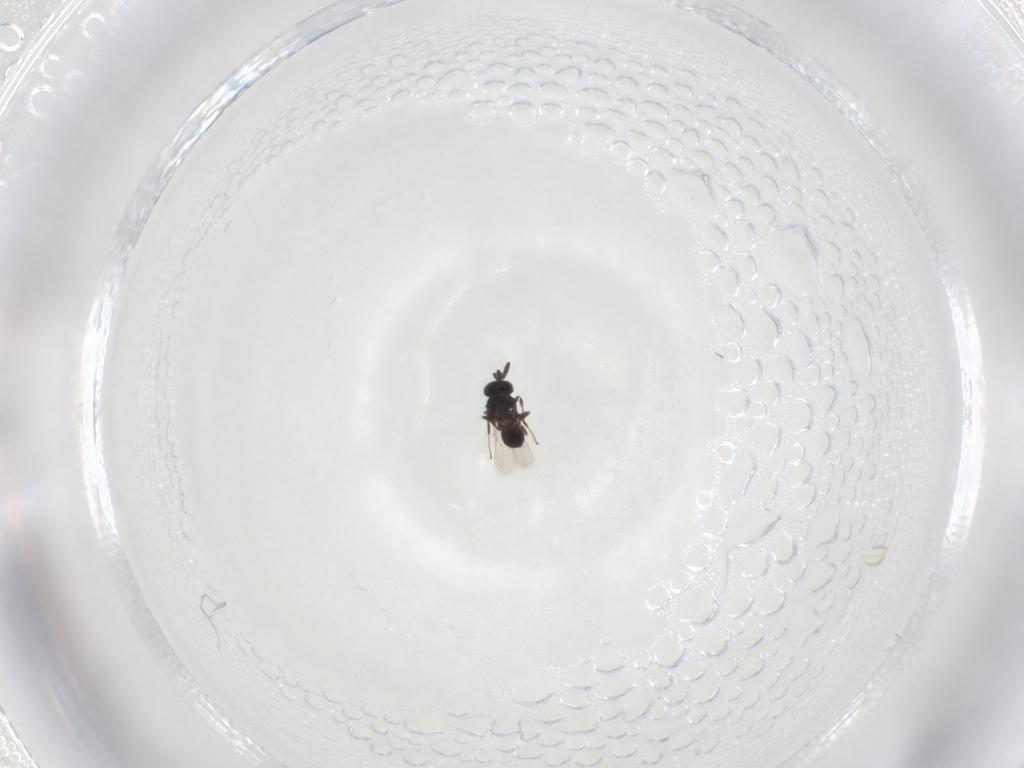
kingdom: Animalia
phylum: Arthropoda
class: Insecta
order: Hymenoptera
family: Scelionidae
